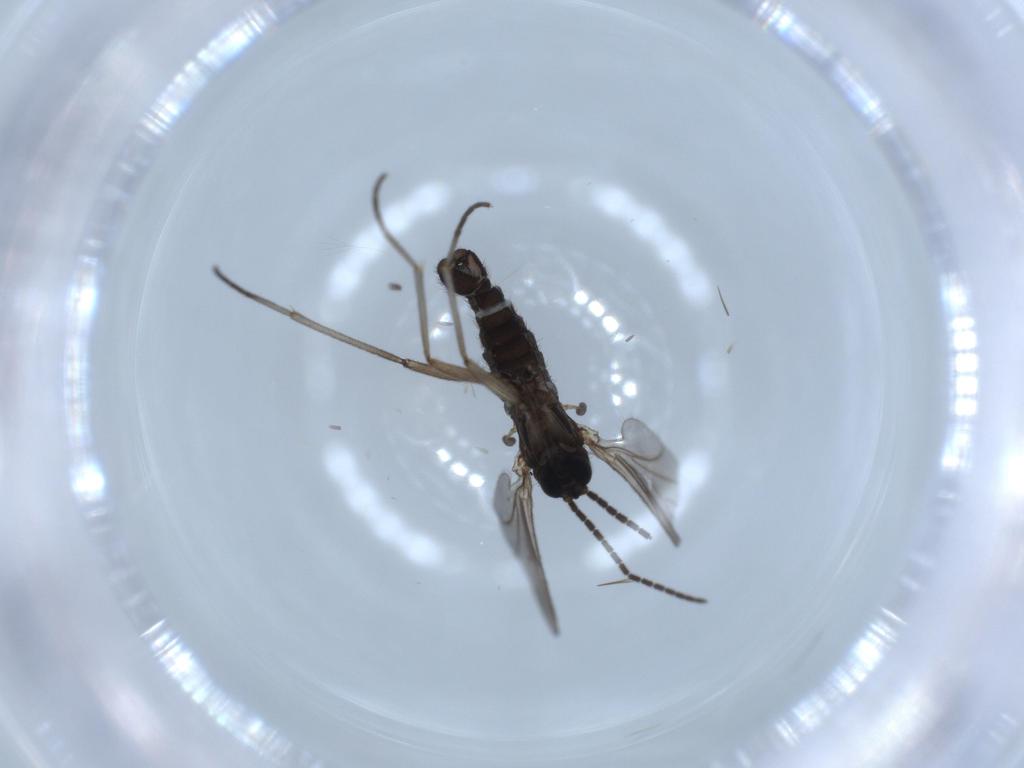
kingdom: Animalia
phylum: Arthropoda
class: Insecta
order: Diptera
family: Sciaridae
